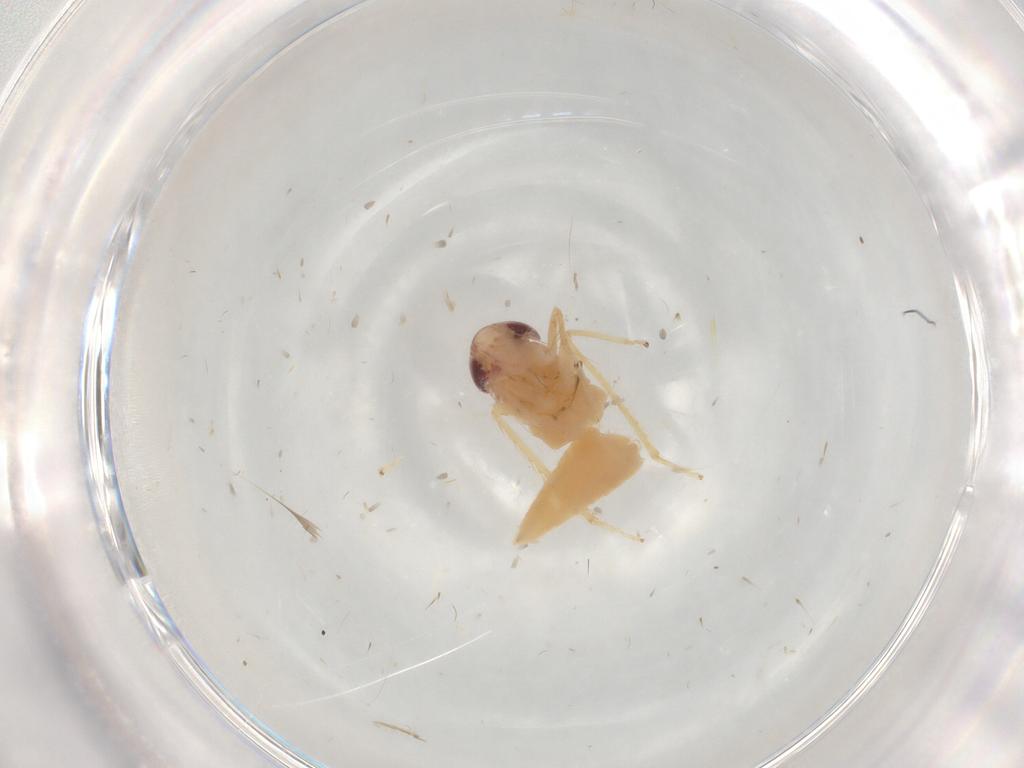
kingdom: Animalia
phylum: Arthropoda
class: Insecta
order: Hemiptera
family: Cicadellidae
